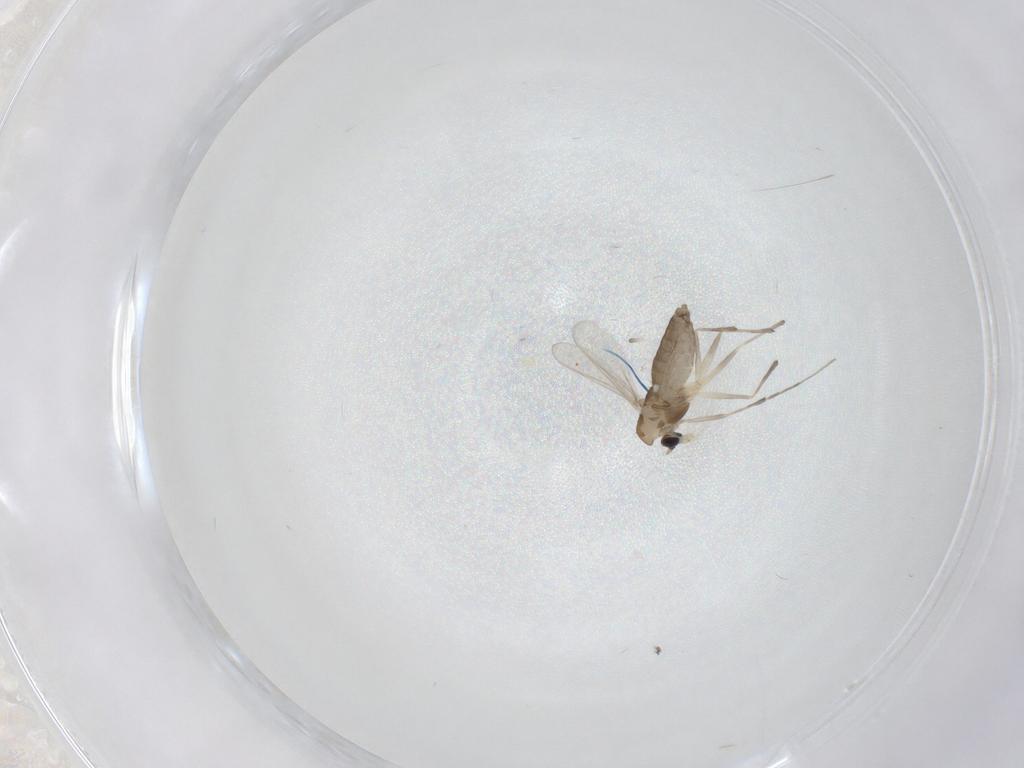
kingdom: Animalia
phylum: Arthropoda
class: Insecta
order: Diptera
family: Chironomidae
